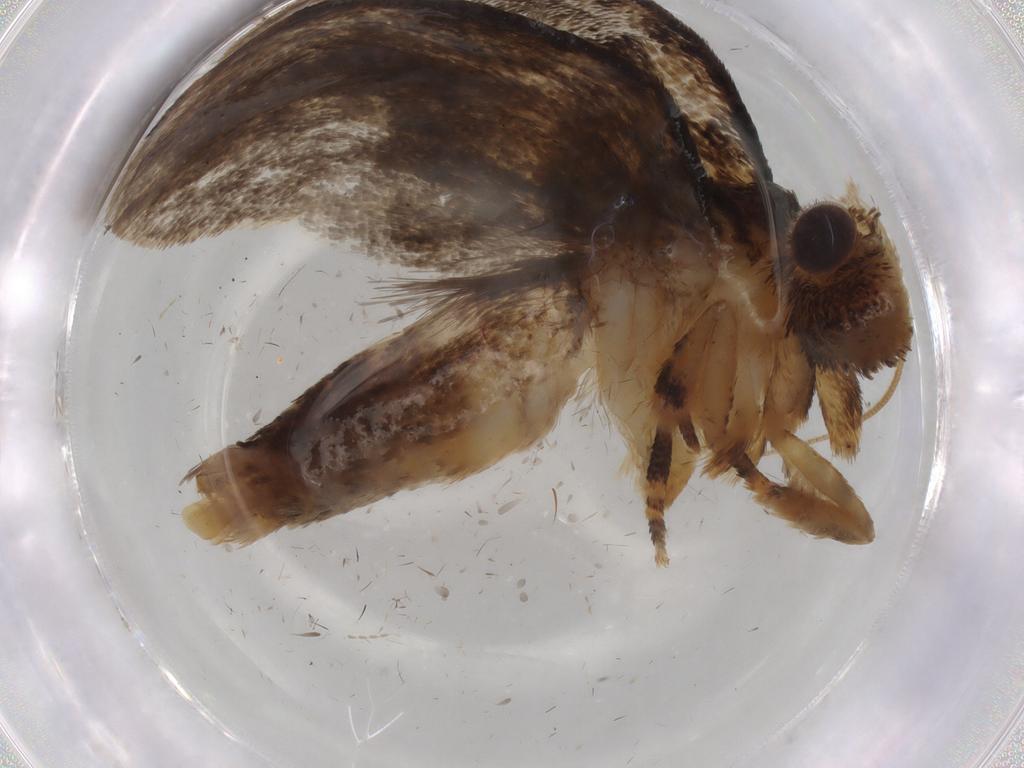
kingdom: Animalia
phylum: Arthropoda
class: Insecta
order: Lepidoptera
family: Tineidae
